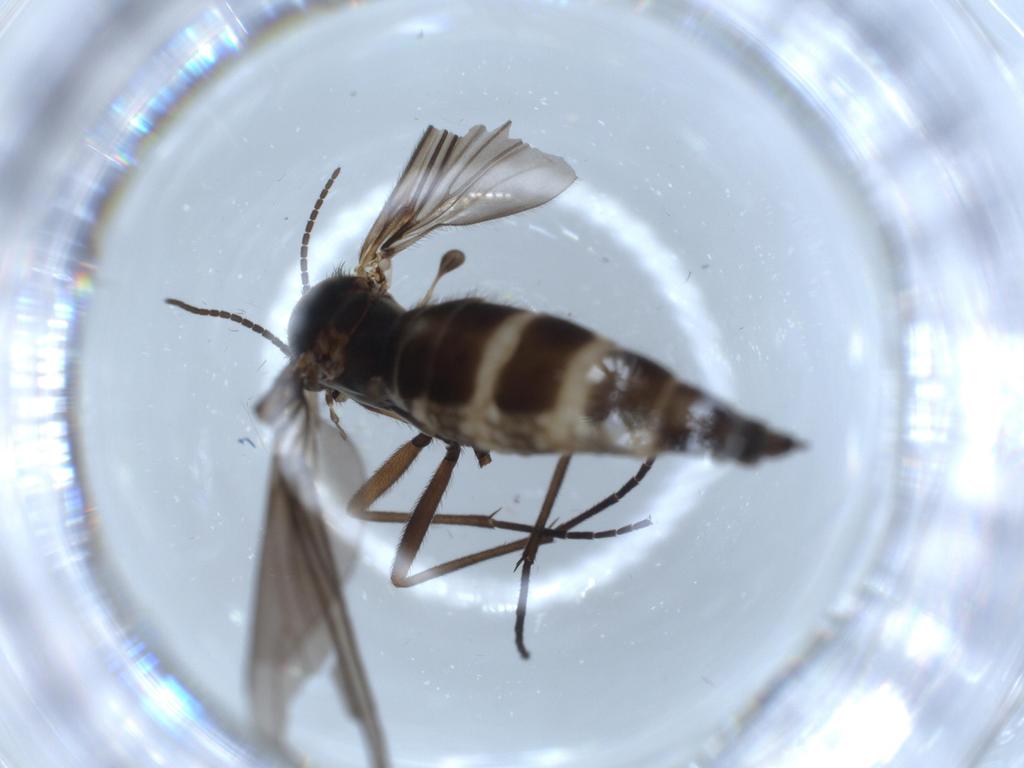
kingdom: Animalia
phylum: Arthropoda
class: Insecta
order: Diptera
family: Sciaridae
